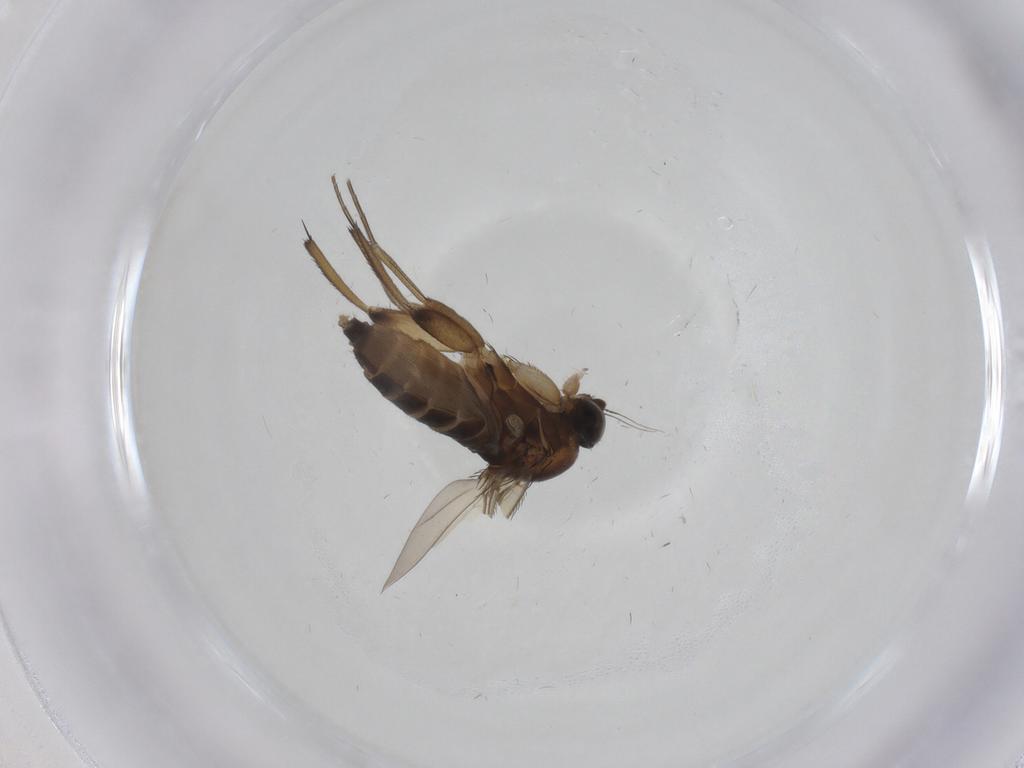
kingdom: Animalia
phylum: Arthropoda
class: Insecta
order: Diptera
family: Phoridae
